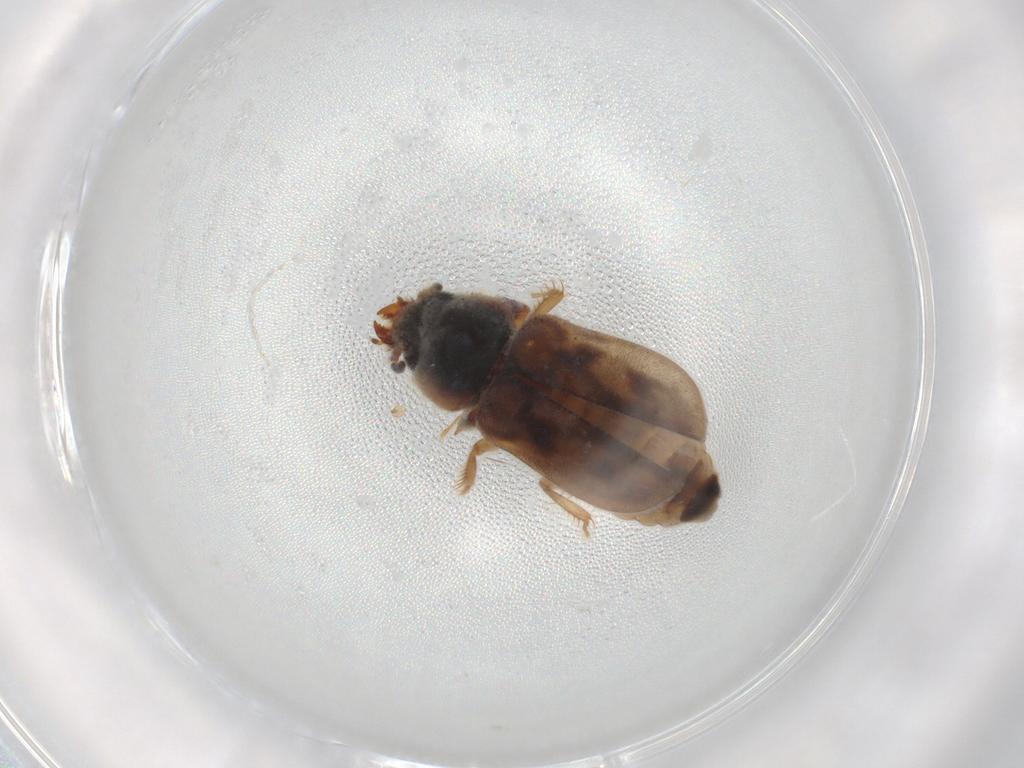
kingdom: Animalia
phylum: Arthropoda
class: Insecta
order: Coleoptera
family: Heteroceridae
